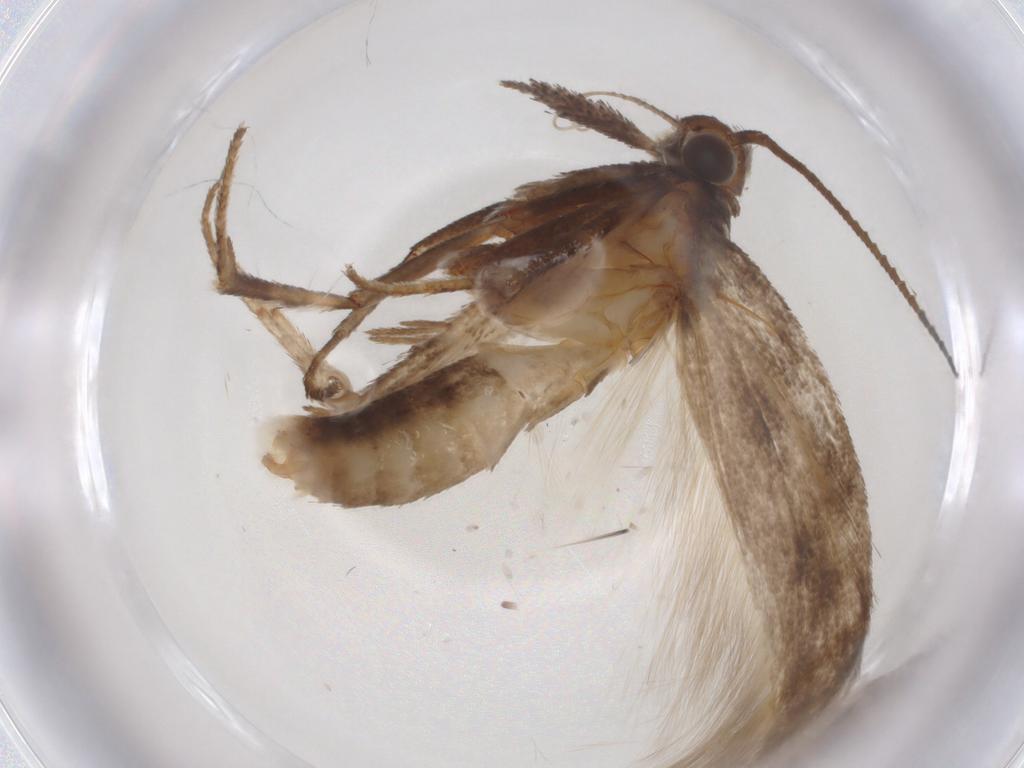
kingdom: Animalia
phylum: Arthropoda
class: Insecta
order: Lepidoptera
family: Gelechiidae
